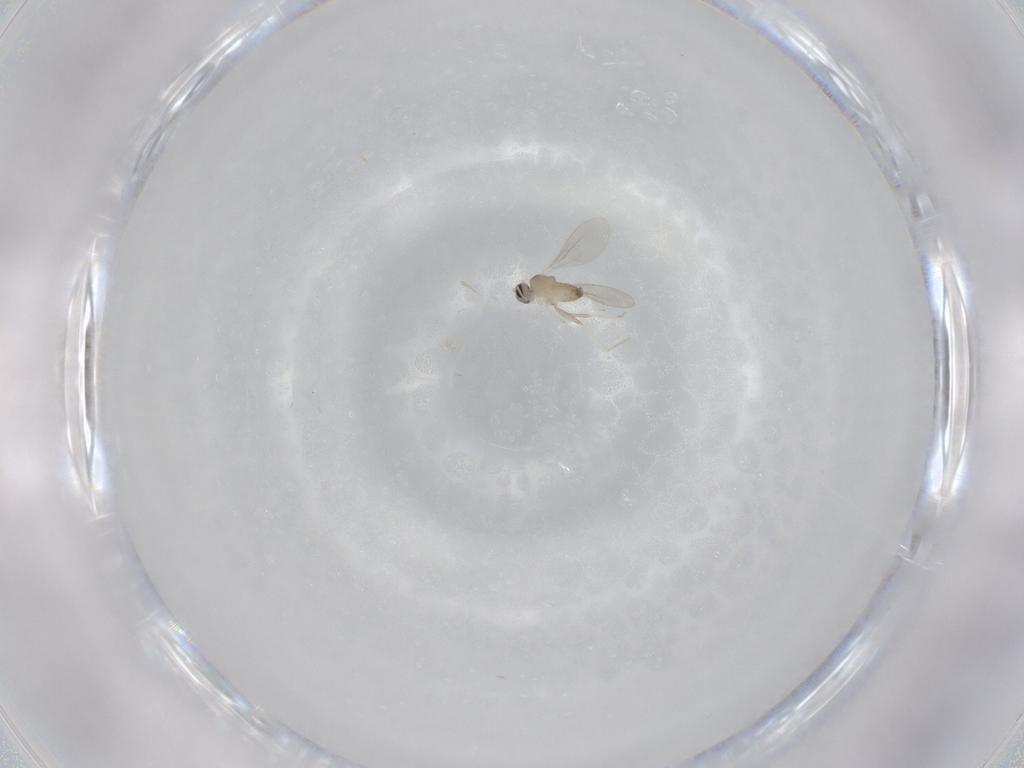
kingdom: Animalia
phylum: Arthropoda
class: Insecta
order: Diptera
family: Cecidomyiidae
